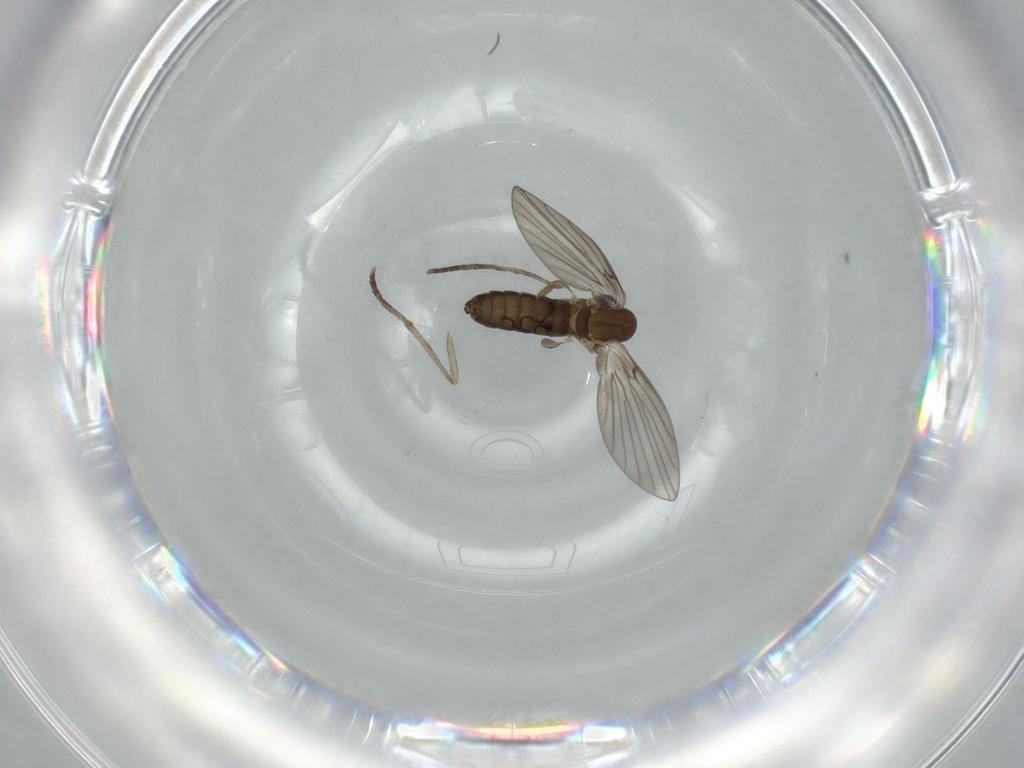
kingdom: Animalia
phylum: Arthropoda
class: Insecta
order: Diptera
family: Psychodidae
